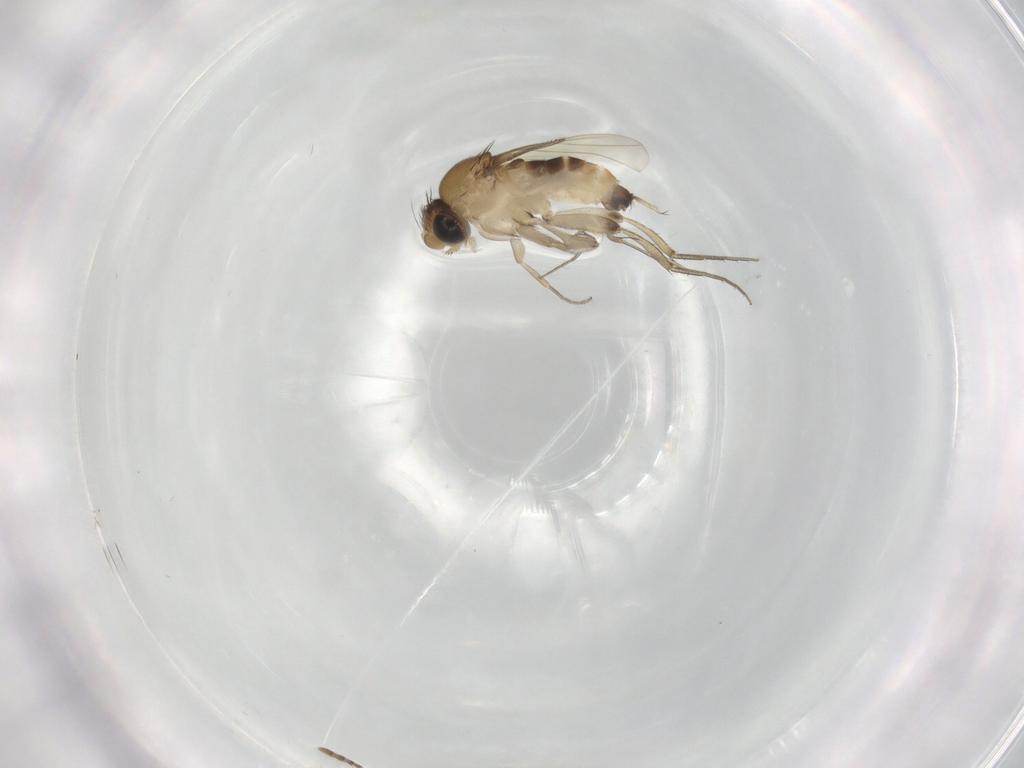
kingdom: Animalia
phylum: Arthropoda
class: Insecta
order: Diptera
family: Phoridae
